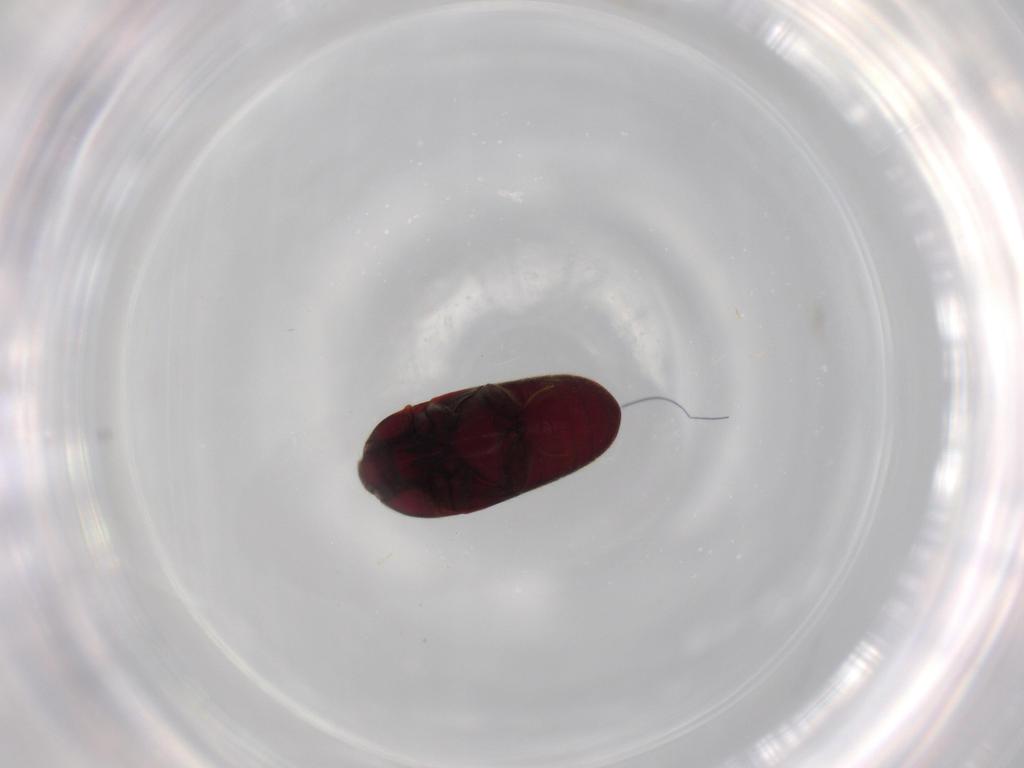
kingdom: Animalia
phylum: Arthropoda
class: Insecta
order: Coleoptera
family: Throscidae
